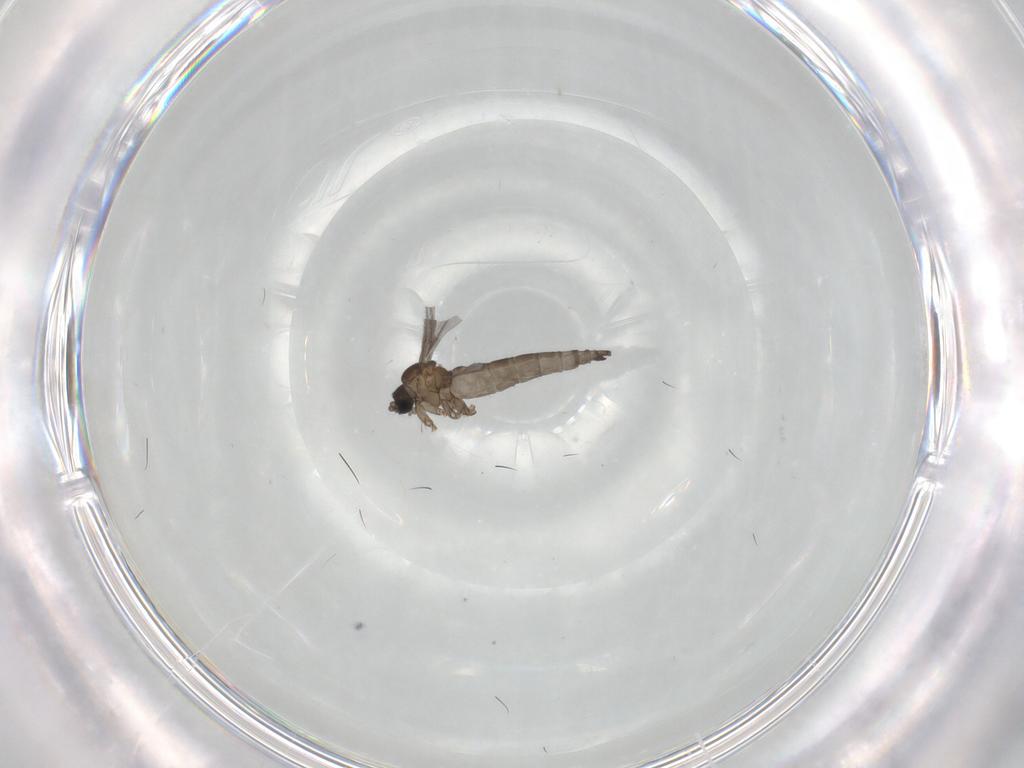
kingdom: Animalia
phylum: Arthropoda
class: Insecta
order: Diptera
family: Sciaridae
